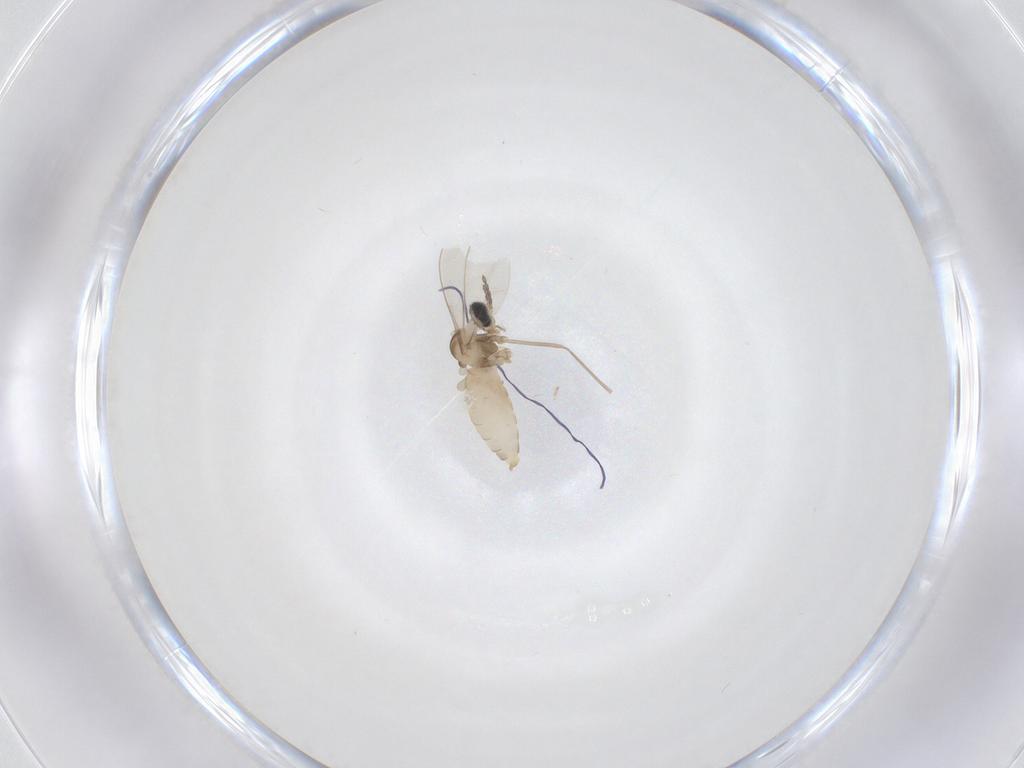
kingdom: Animalia
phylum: Arthropoda
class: Insecta
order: Diptera
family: Cecidomyiidae
